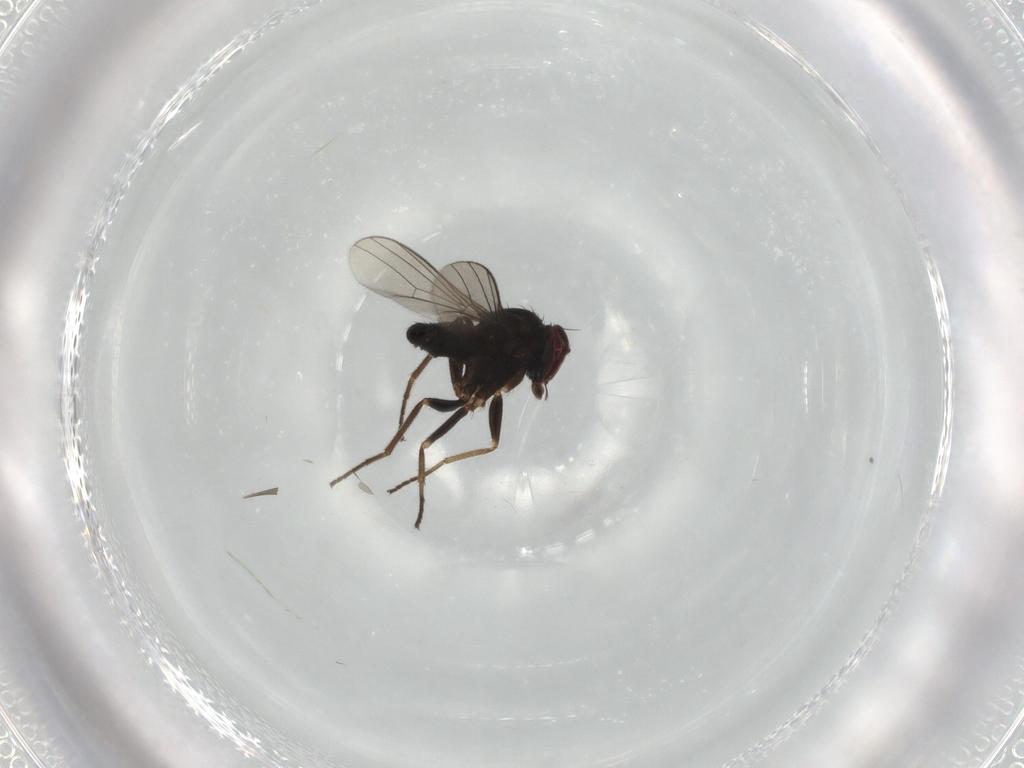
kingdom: Animalia
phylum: Arthropoda
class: Insecta
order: Diptera
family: Dolichopodidae
